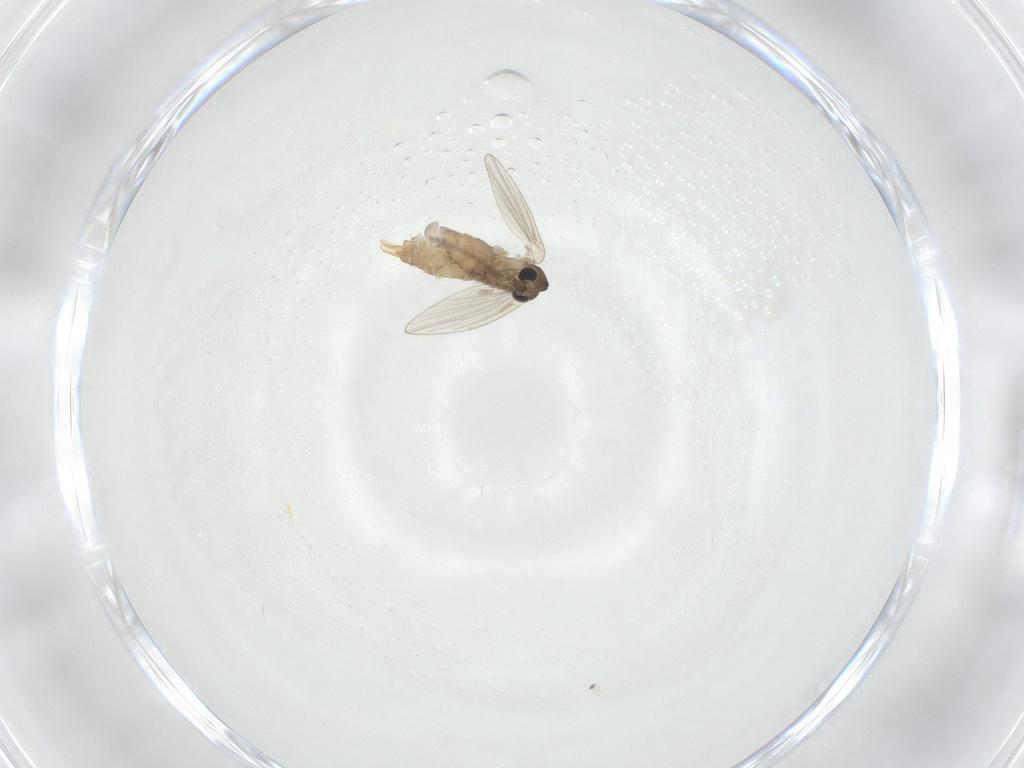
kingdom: Animalia
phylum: Arthropoda
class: Insecta
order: Diptera
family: Psychodidae
